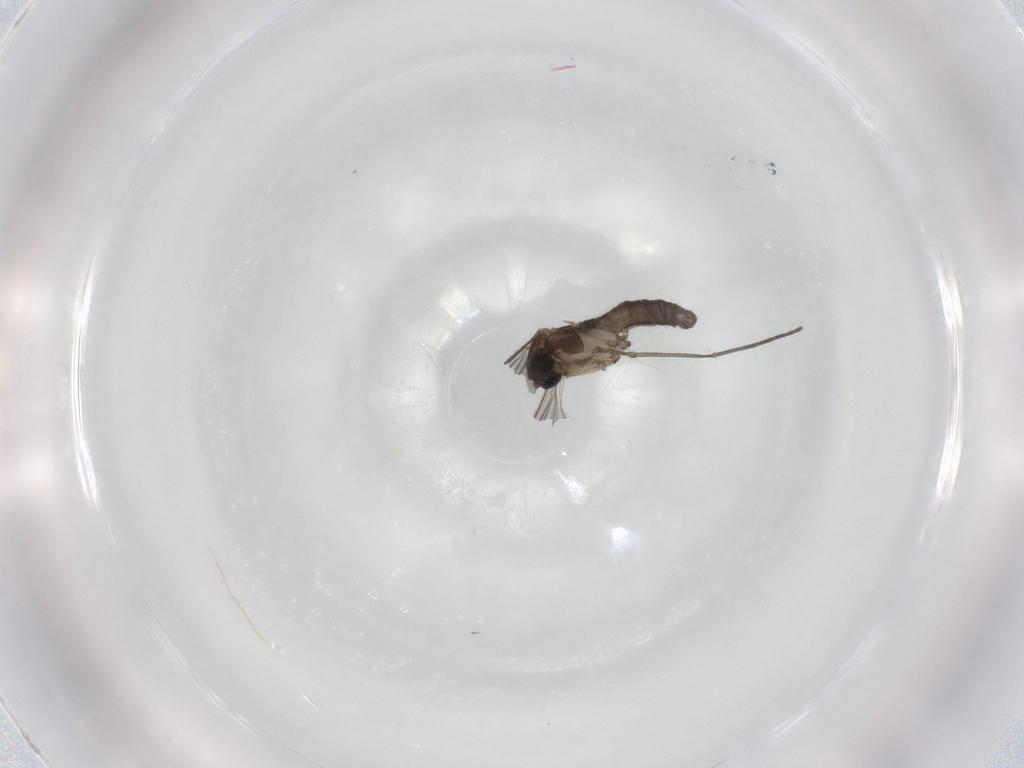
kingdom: Animalia
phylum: Arthropoda
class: Insecta
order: Diptera
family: Sciaridae
